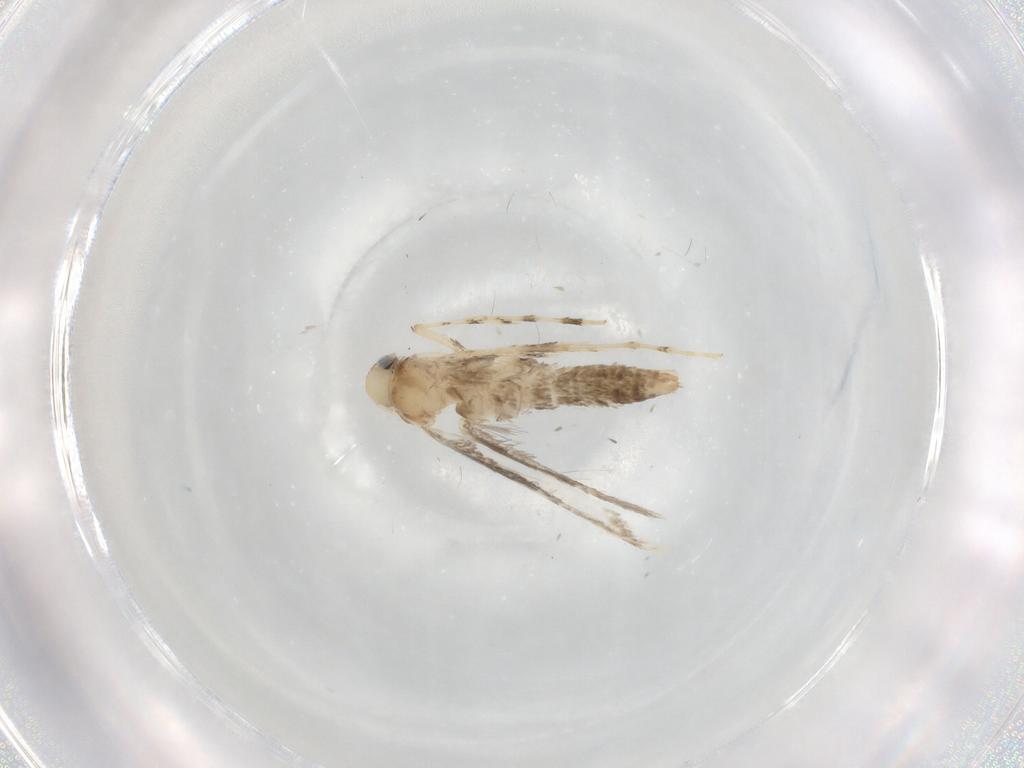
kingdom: Animalia
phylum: Arthropoda
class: Insecta
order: Lepidoptera
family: Gracillariidae
